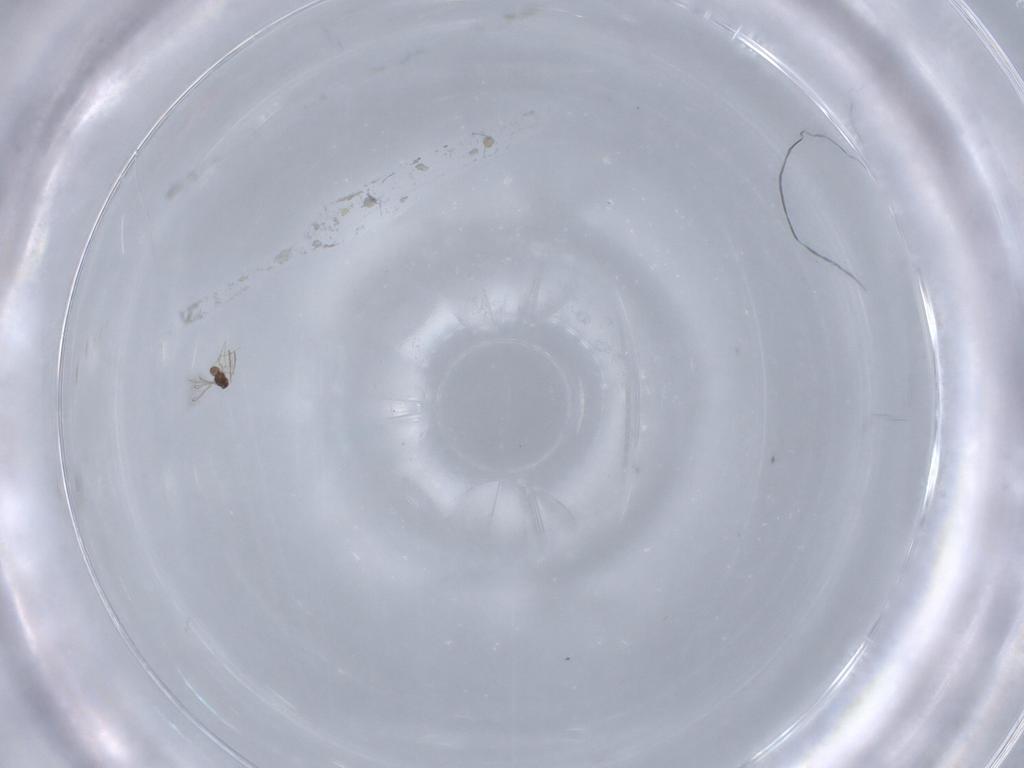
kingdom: Animalia
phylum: Arthropoda
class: Insecta
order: Hymenoptera
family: Mymaridae
